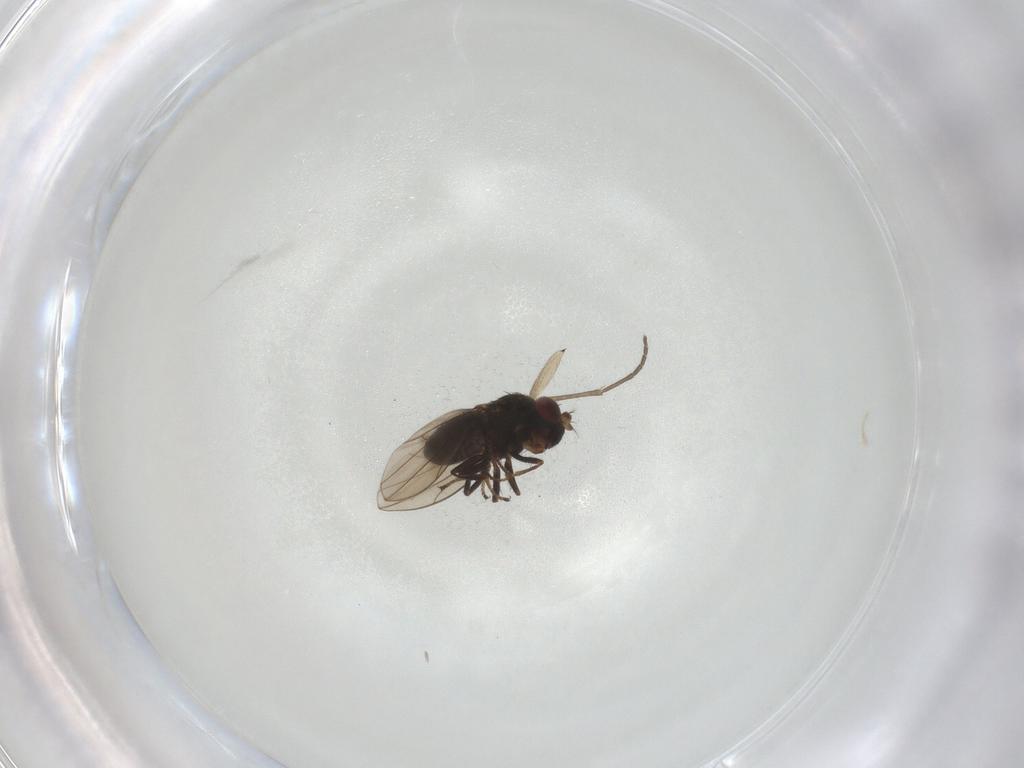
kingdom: Animalia
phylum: Arthropoda
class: Insecta
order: Diptera
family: Ephydridae
